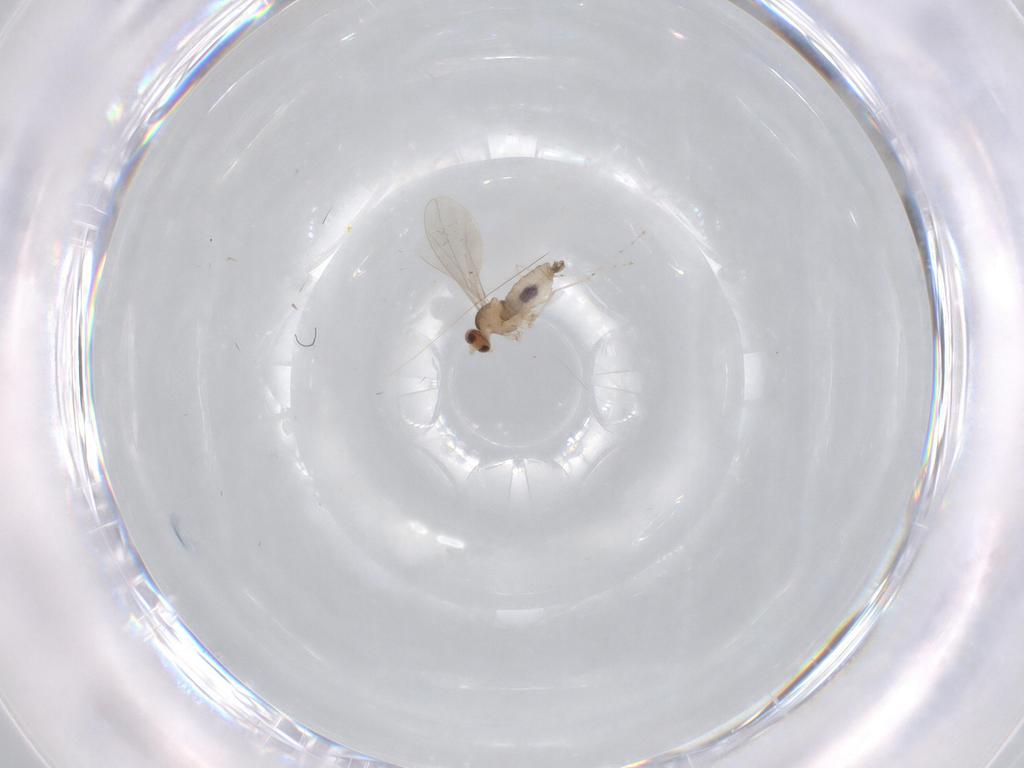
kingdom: Animalia
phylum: Arthropoda
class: Insecta
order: Diptera
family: Cecidomyiidae
